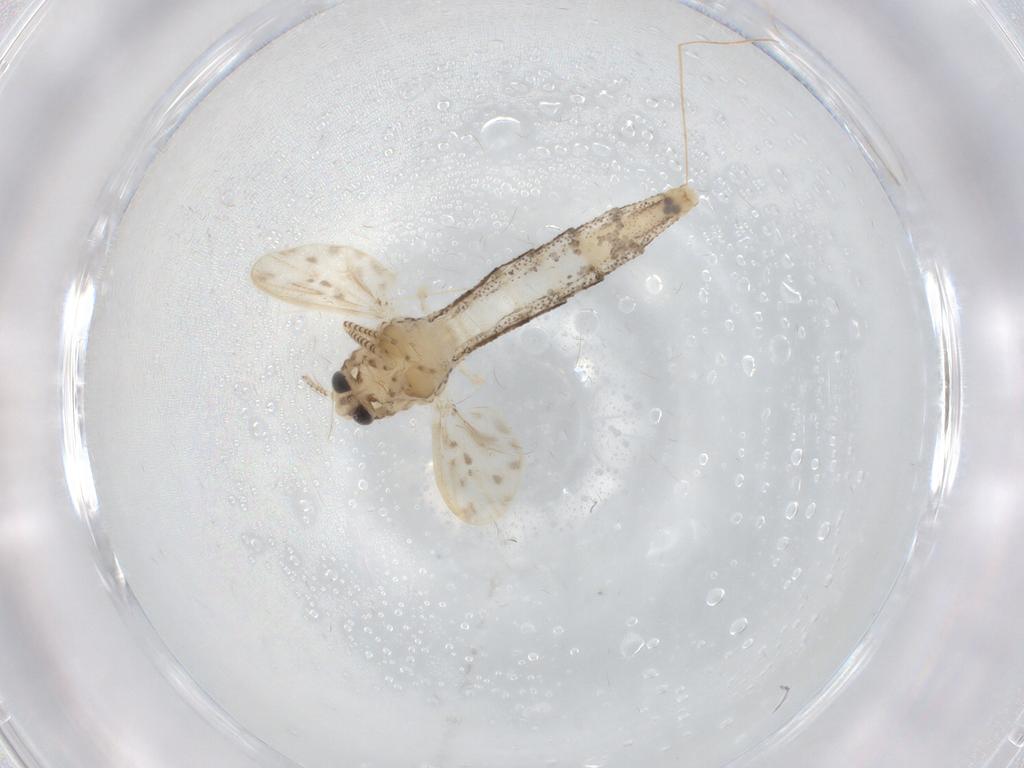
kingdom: Animalia
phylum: Arthropoda
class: Insecta
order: Diptera
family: Chaoboridae
